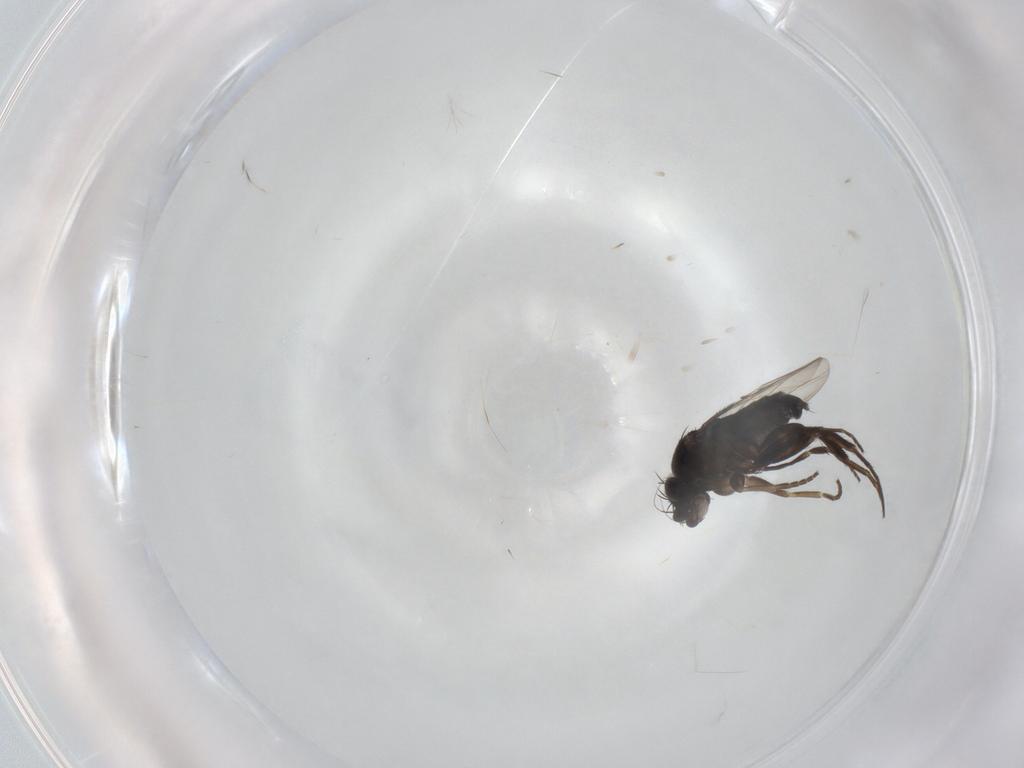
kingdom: Animalia
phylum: Arthropoda
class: Insecta
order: Diptera
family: Phoridae
